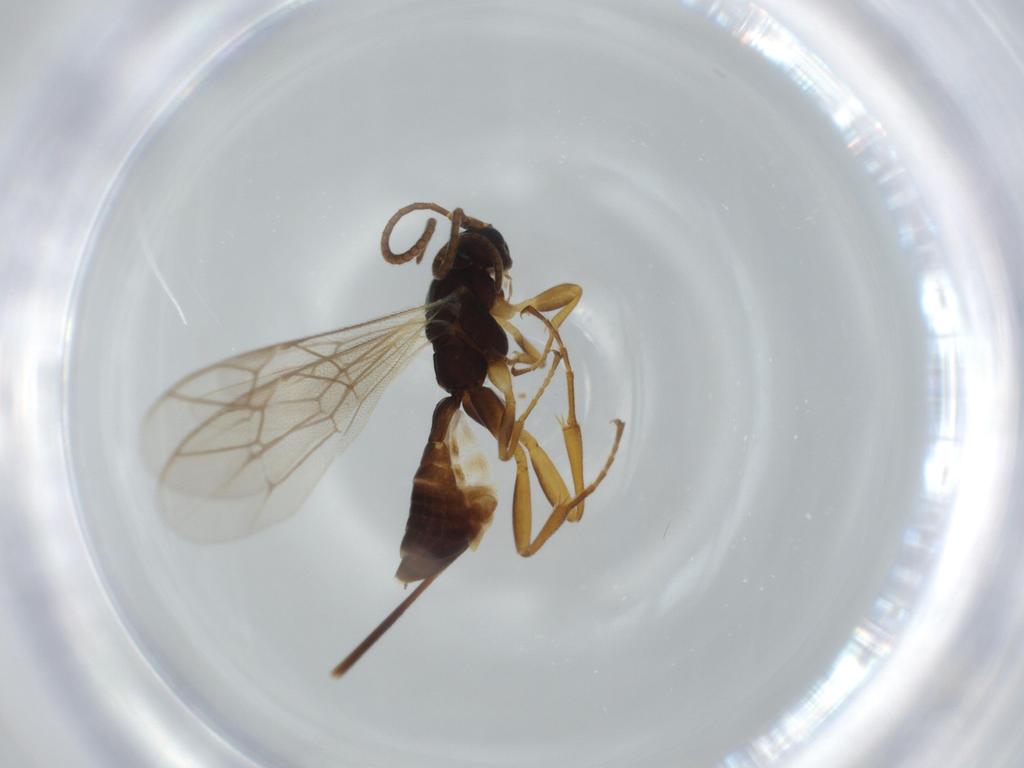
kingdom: Animalia
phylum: Arthropoda
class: Insecta
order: Hymenoptera
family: Ichneumonidae
